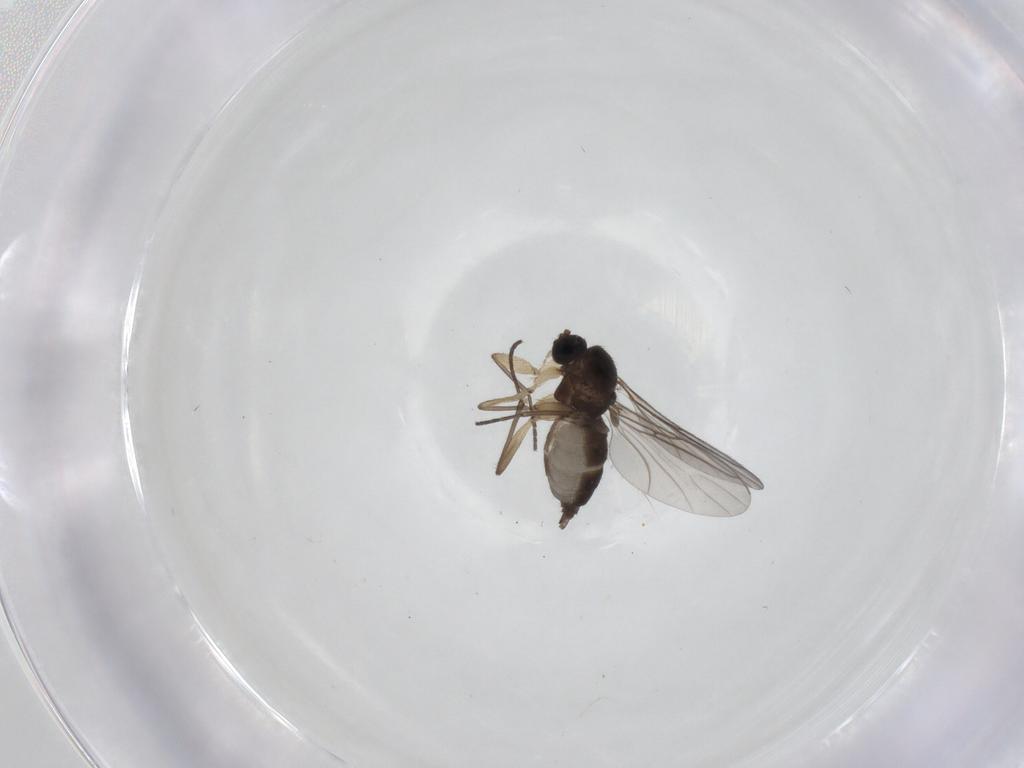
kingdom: Animalia
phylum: Arthropoda
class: Insecta
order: Diptera
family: Sciaridae
